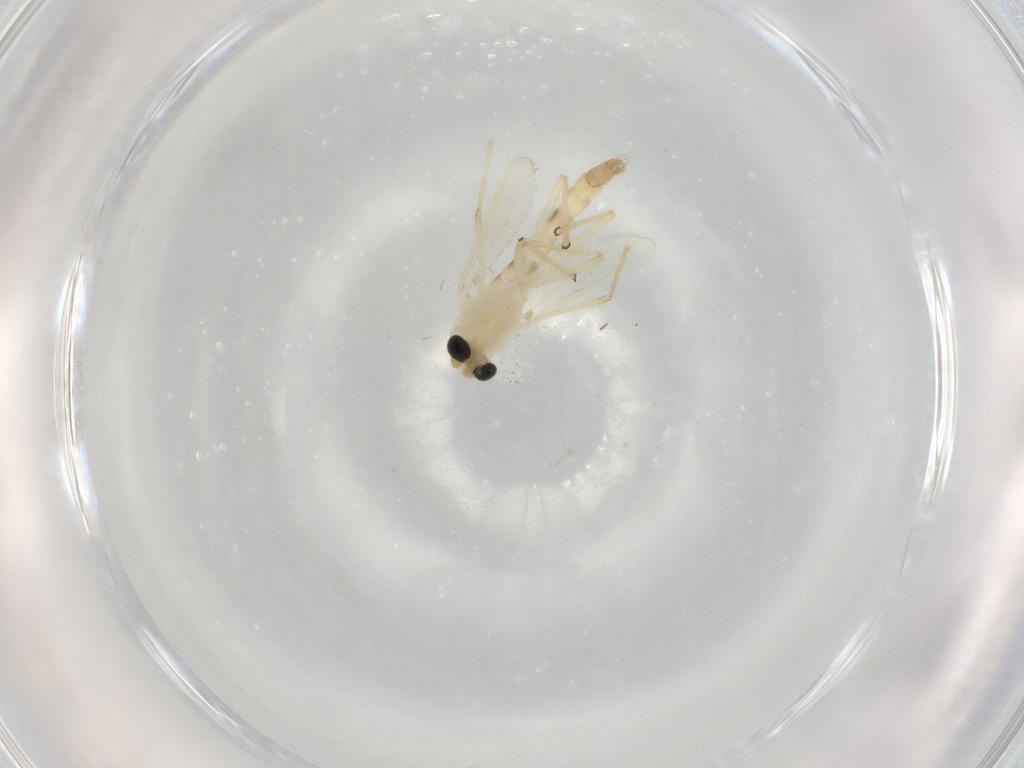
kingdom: Animalia
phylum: Arthropoda
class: Insecta
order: Diptera
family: Chironomidae
